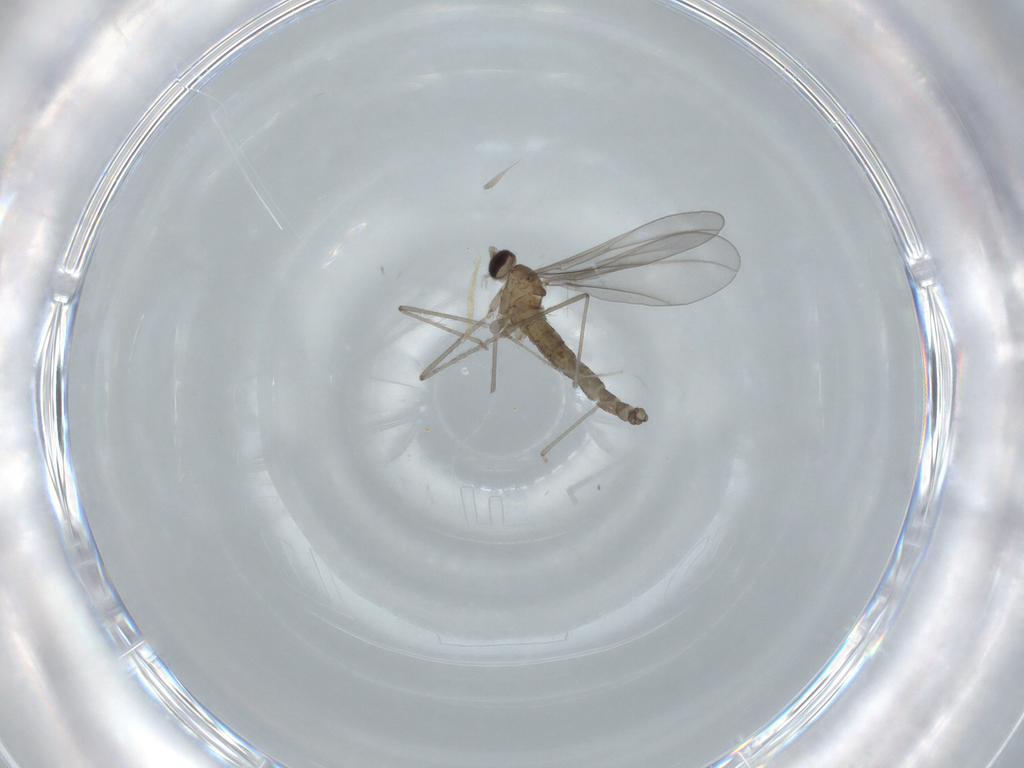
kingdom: Animalia
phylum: Arthropoda
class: Insecta
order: Diptera
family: Cecidomyiidae
